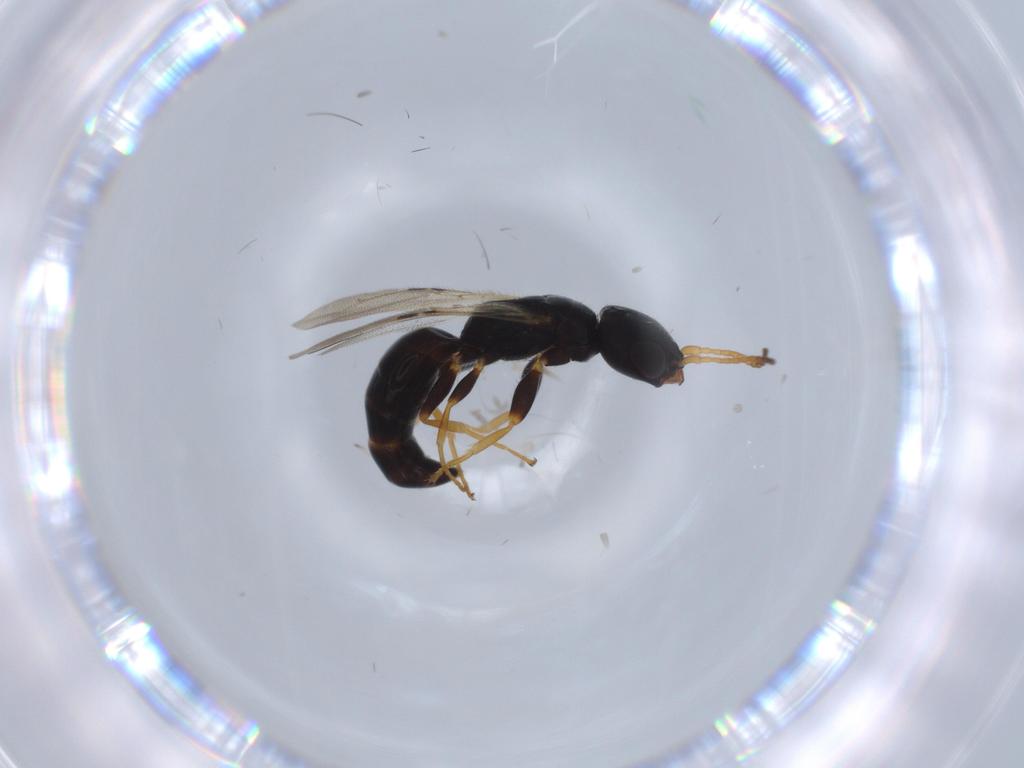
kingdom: Animalia
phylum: Arthropoda
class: Insecta
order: Hymenoptera
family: Bethylidae
